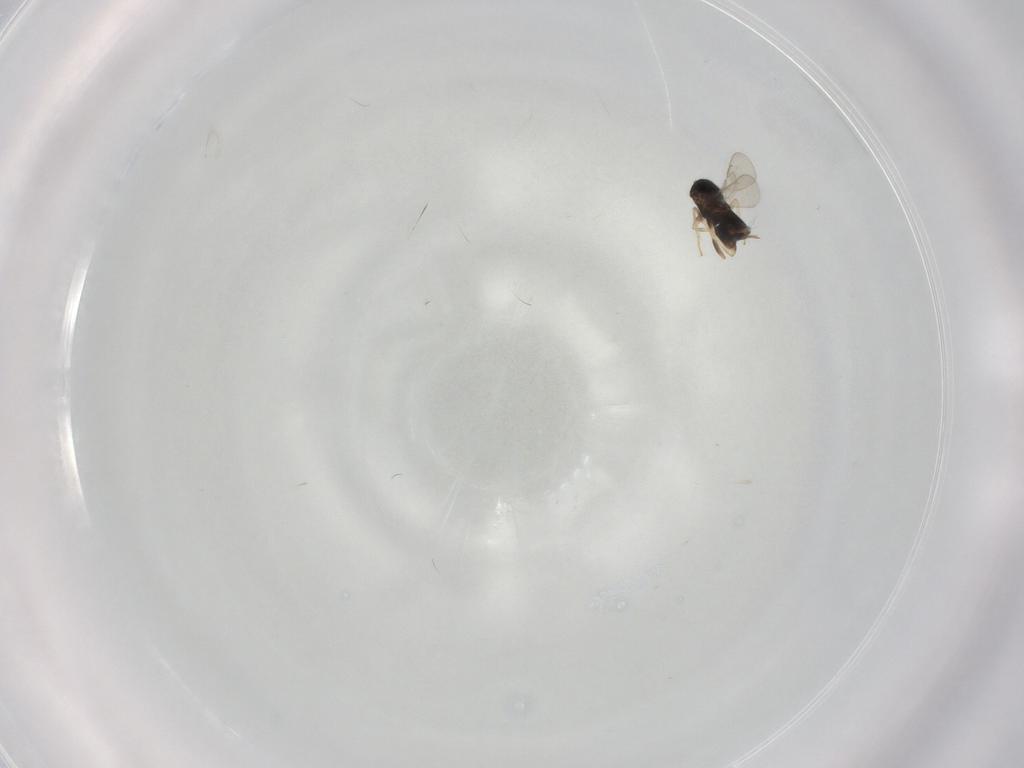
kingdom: Animalia
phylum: Arthropoda
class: Insecta
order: Hymenoptera
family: Aphelinidae
